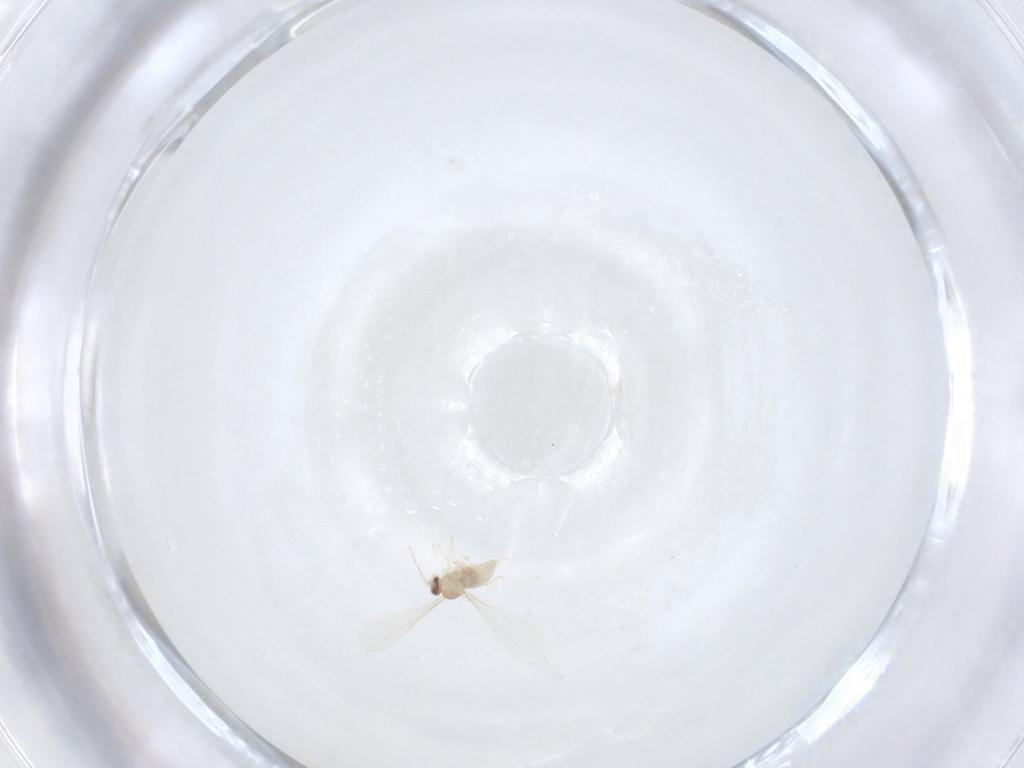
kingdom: Animalia
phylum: Arthropoda
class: Insecta
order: Diptera
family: Cecidomyiidae
